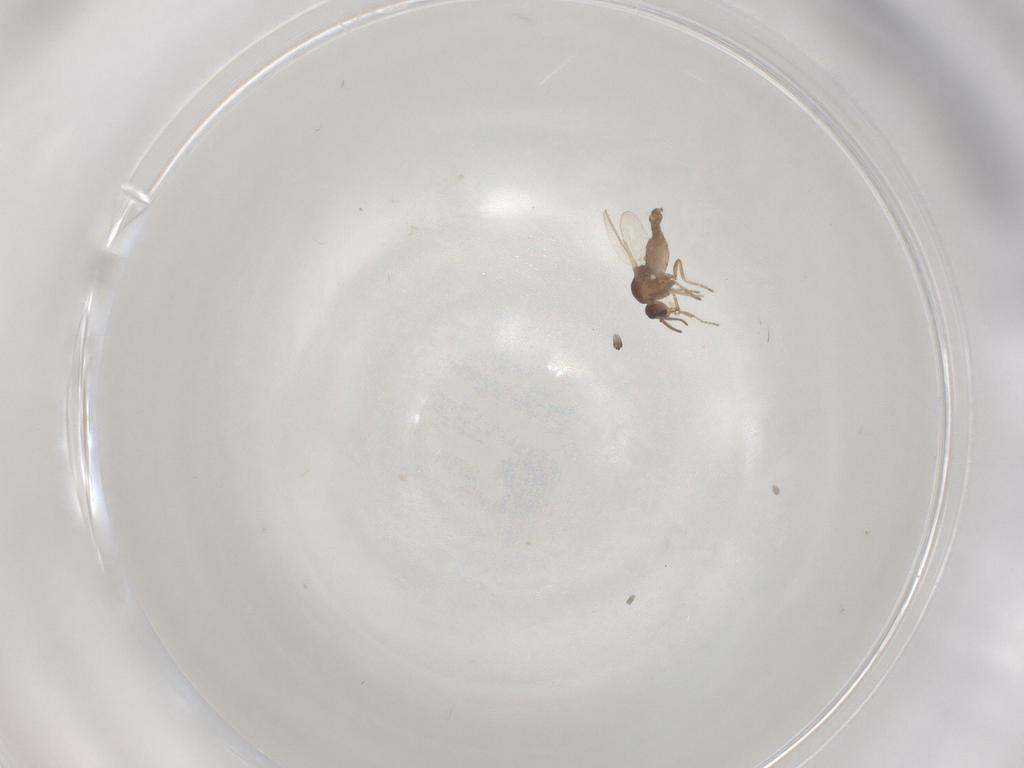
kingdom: Animalia
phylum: Arthropoda
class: Insecta
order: Diptera
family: Ceratopogonidae
